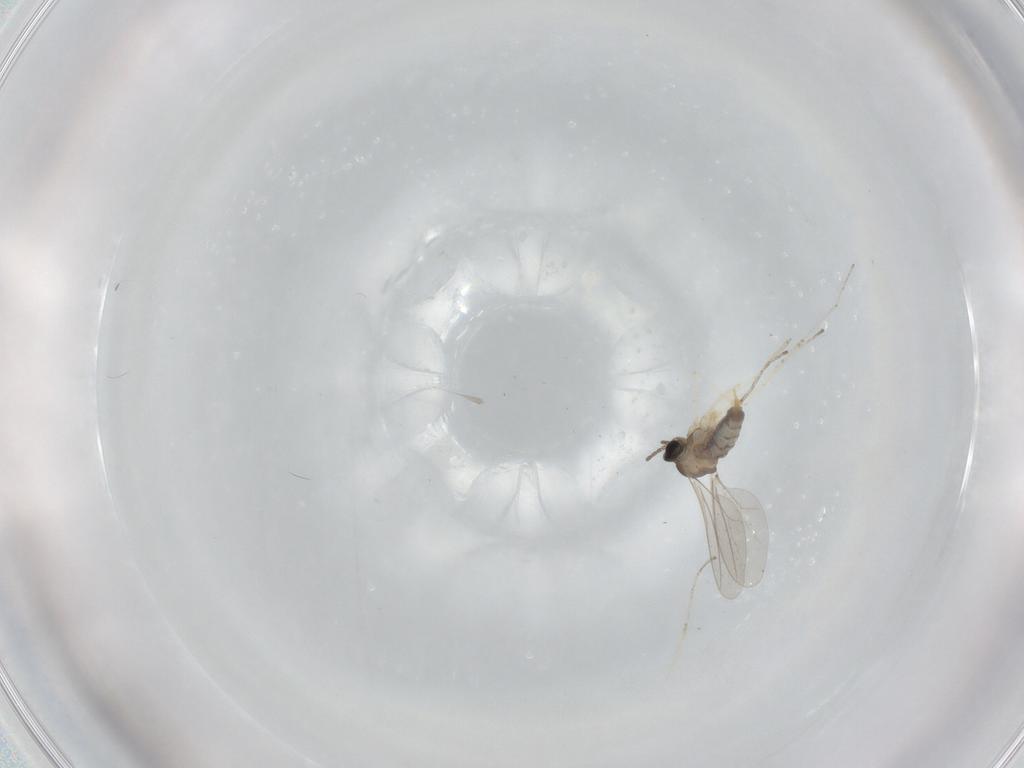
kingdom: Animalia
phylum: Arthropoda
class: Insecta
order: Diptera
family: Cecidomyiidae
